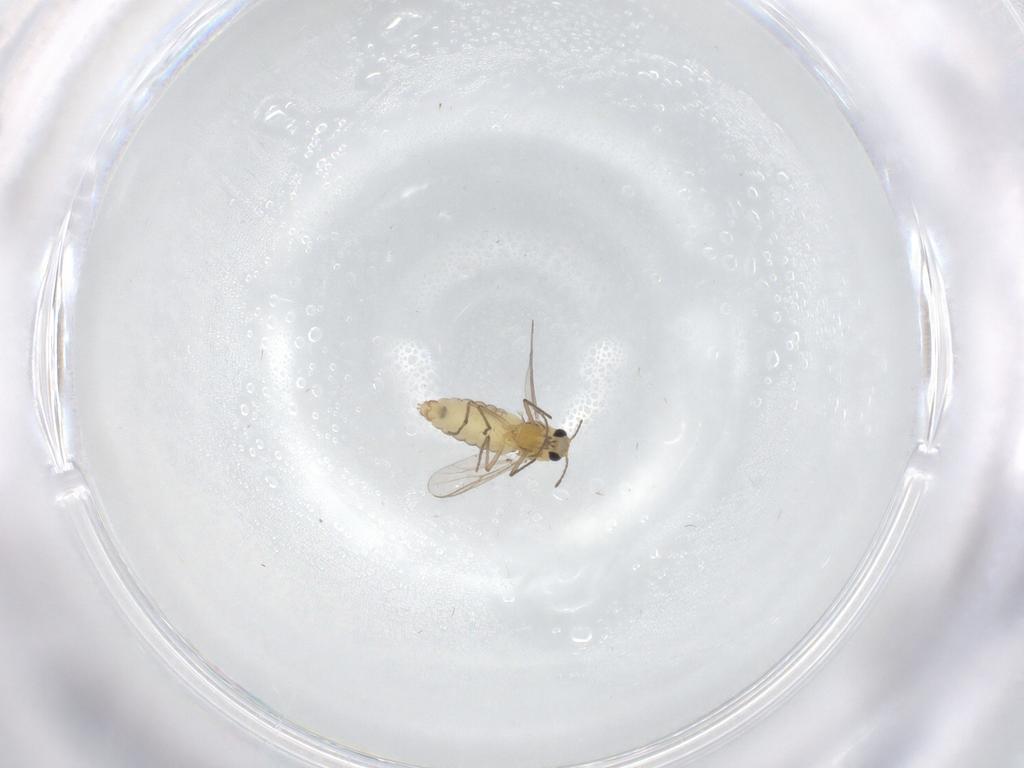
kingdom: Animalia
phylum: Arthropoda
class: Insecta
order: Diptera
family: Chironomidae
